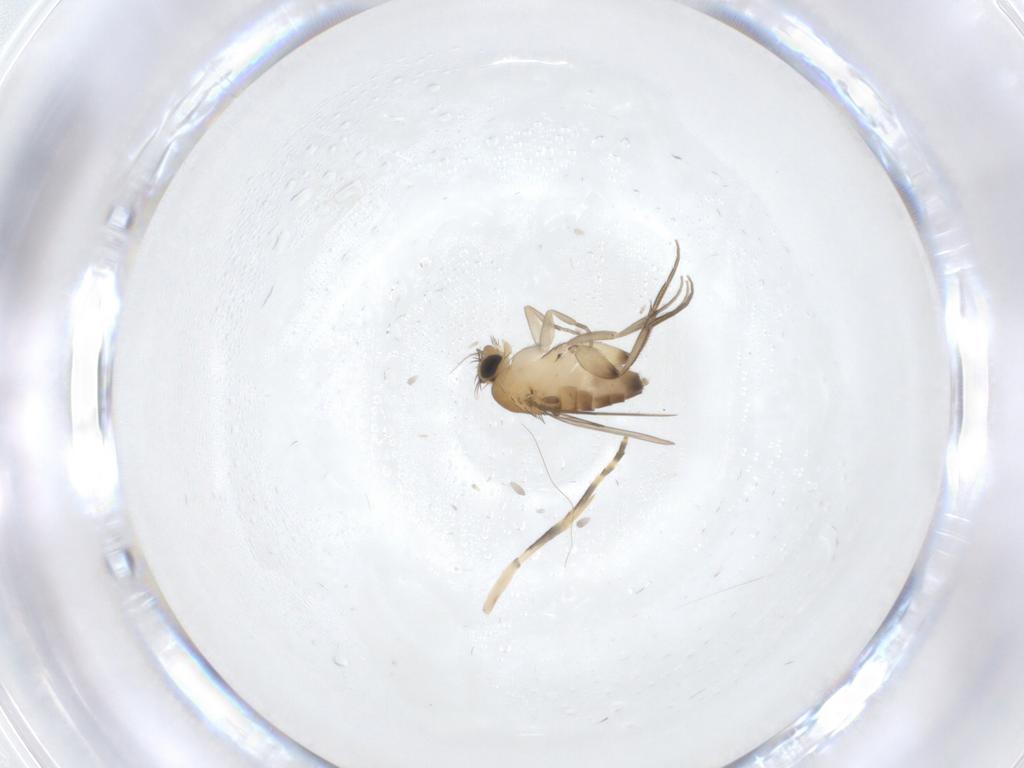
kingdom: Animalia
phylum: Arthropoda
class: Insecta
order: Diptera
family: Phoridae
